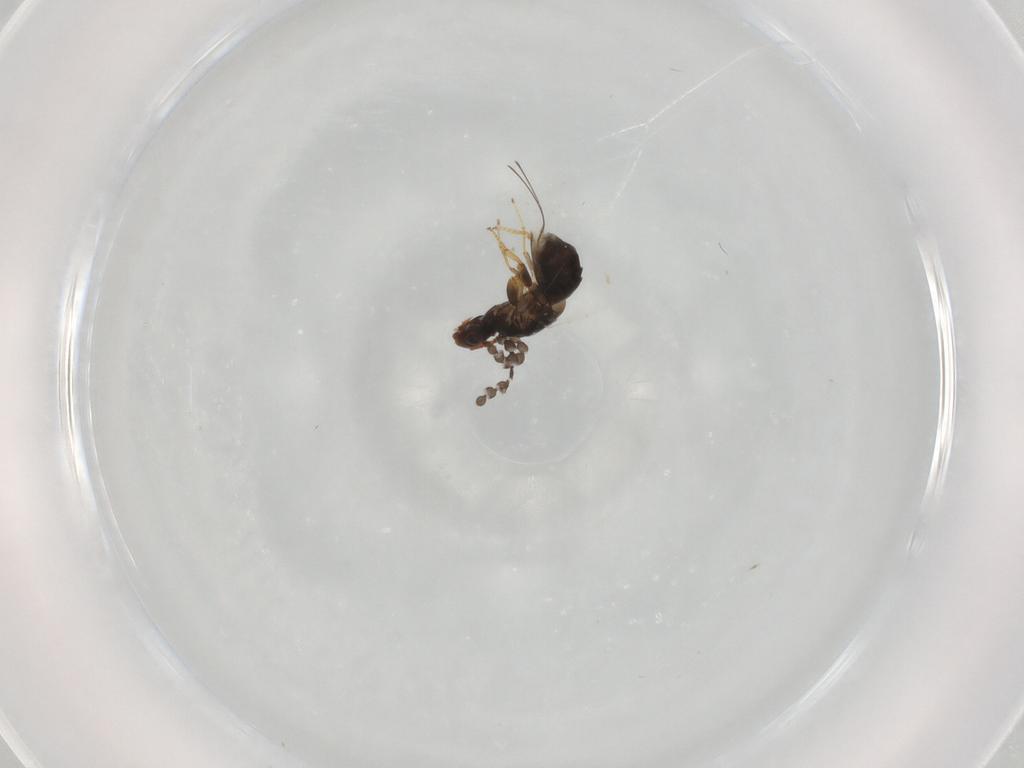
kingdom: Animalia
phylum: Arthropoda
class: Insecta
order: Hymenoptera
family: Agaonidae
